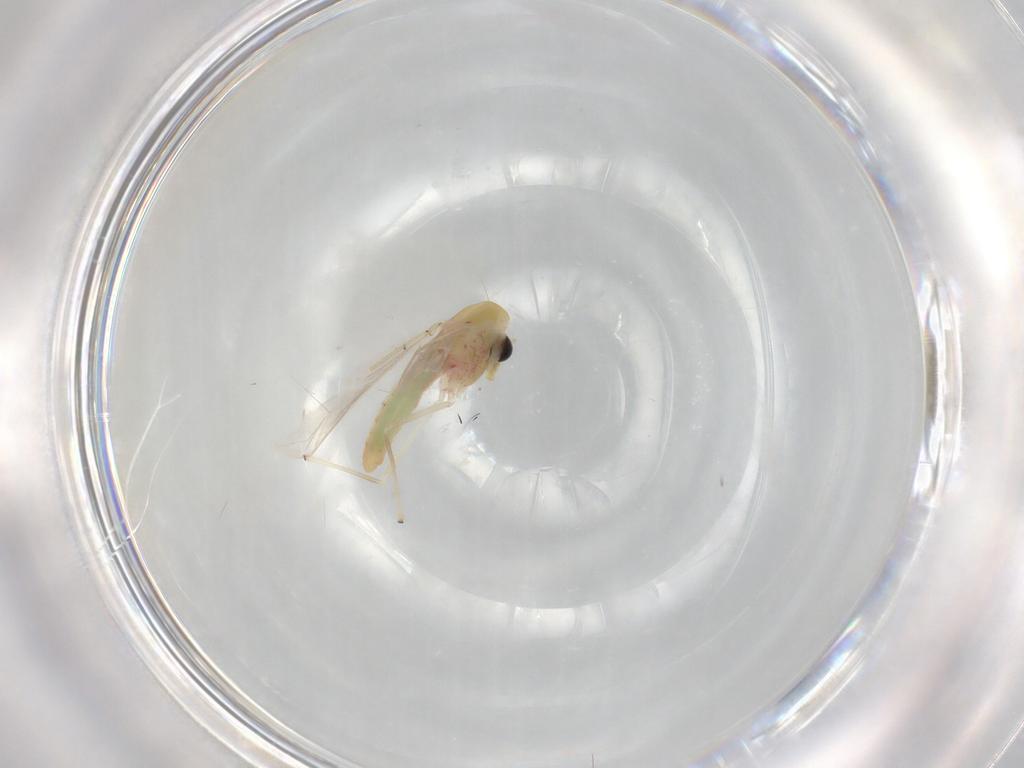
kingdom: Animalia
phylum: Arthropoda
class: Insecta
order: Diptera
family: Chironomidae
